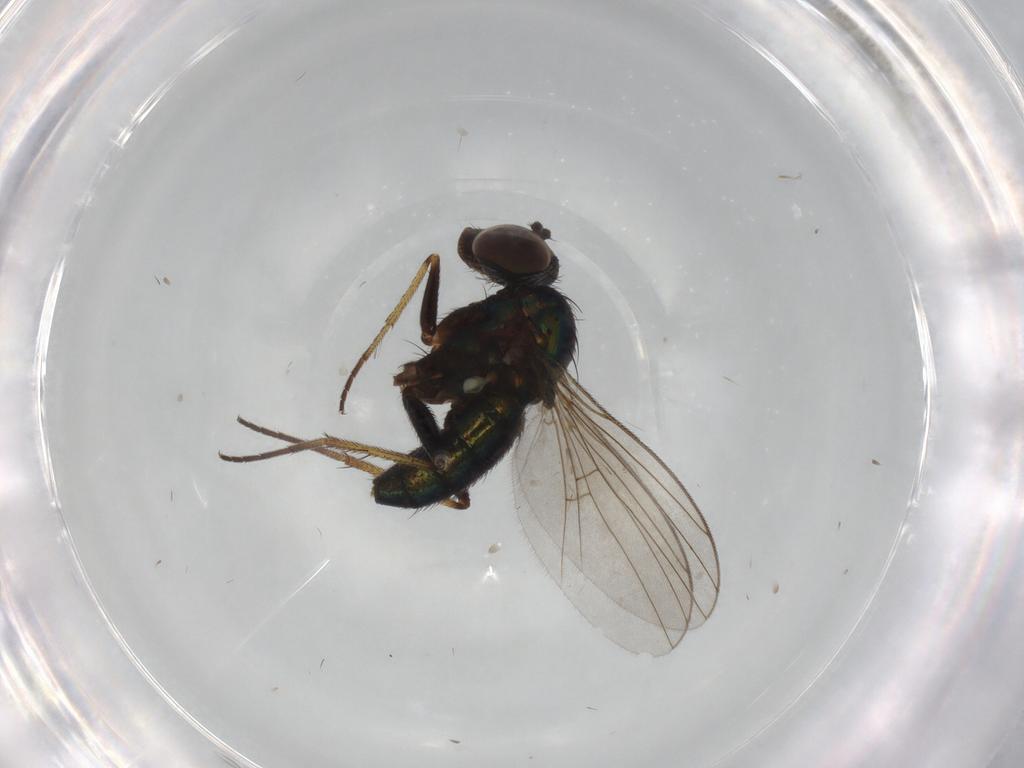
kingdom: Animalia
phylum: Arthropoda
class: Insecta
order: Diptera
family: Dolichopodidae
